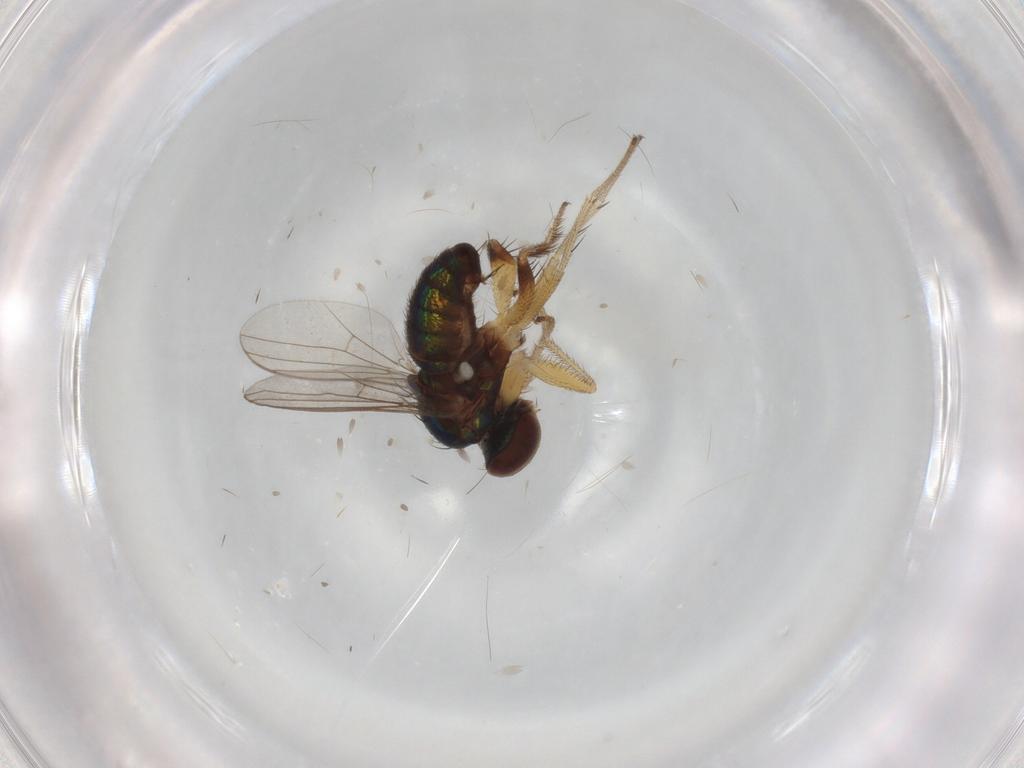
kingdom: Animalia
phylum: Arthropoda
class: Insecta
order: Diptera
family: Cecidomyiidae
